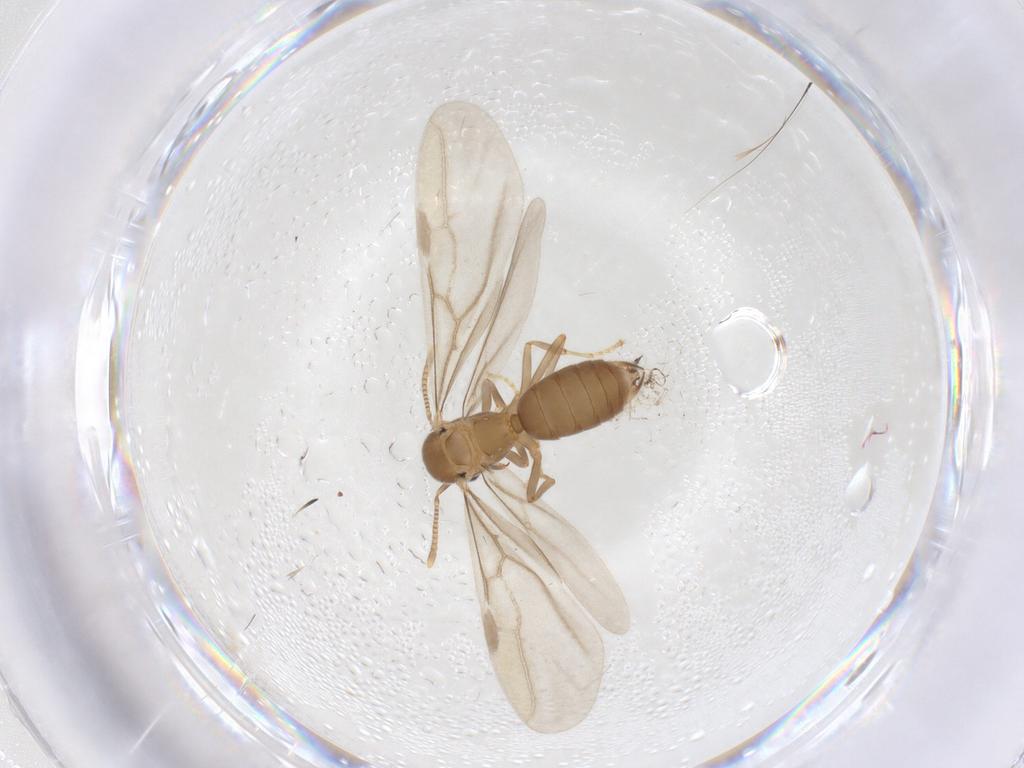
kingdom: Animalia
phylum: Arthropoda
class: Insecta
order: Hymenoptera
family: Formicidae
